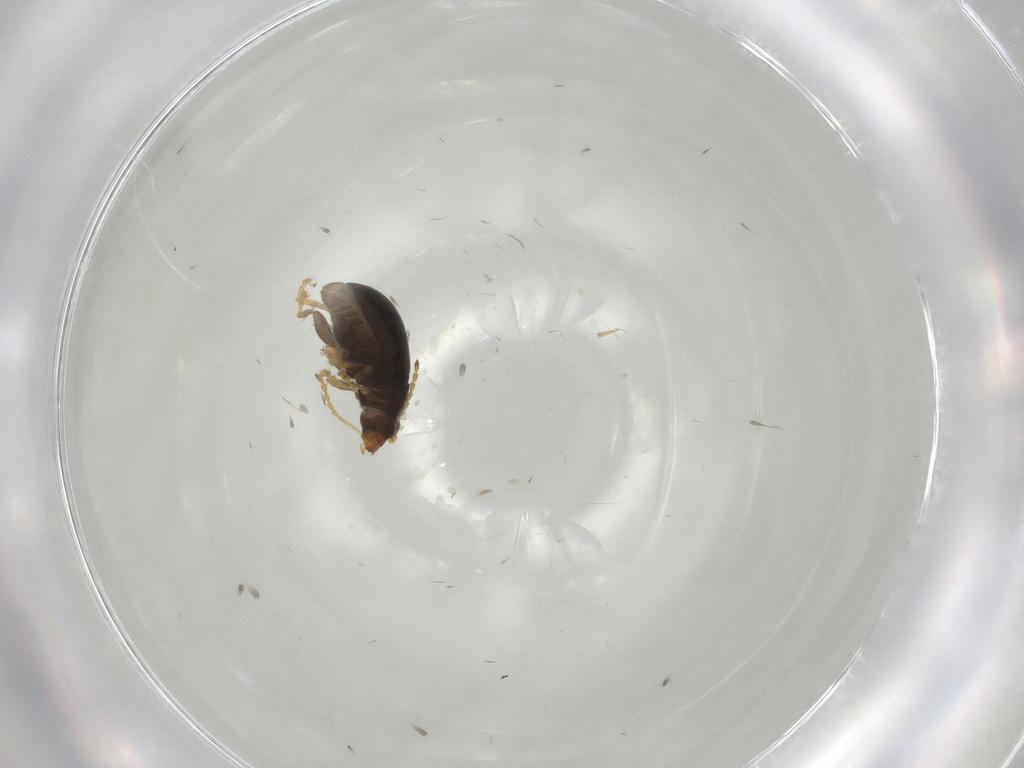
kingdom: Animalia
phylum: Arthropoda
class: Insecta
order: Coleoptera
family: Chrysomelidae
